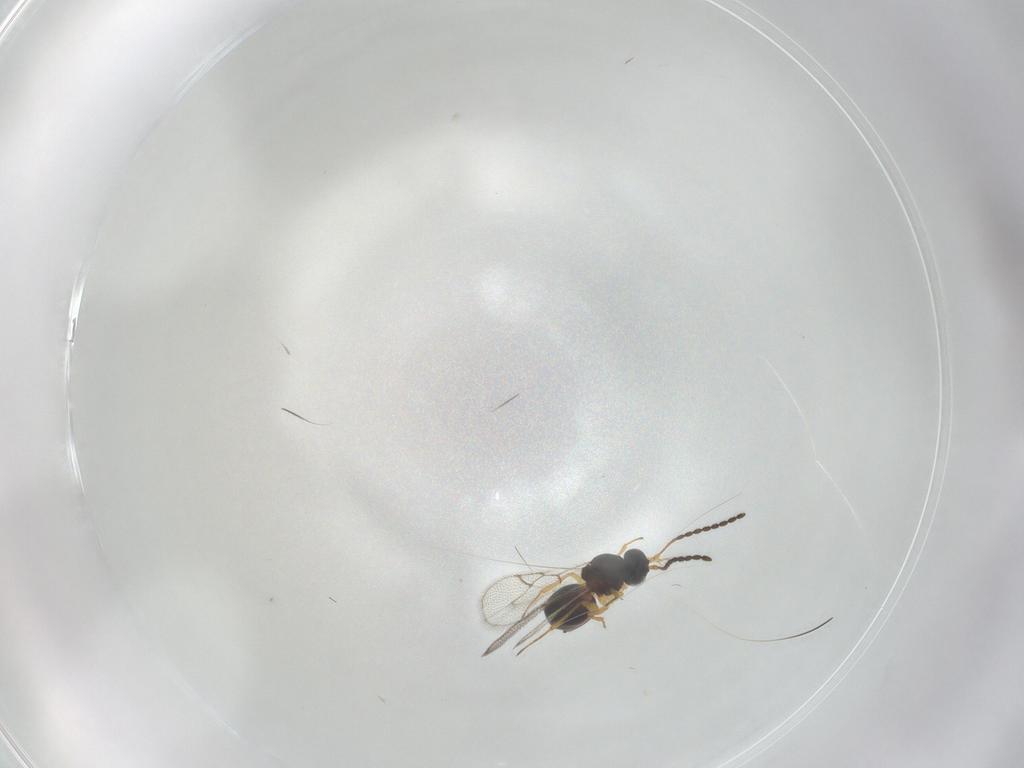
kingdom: Animalia
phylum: Arthropoda
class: Insecta
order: Hymenoptera
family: Figitidae
